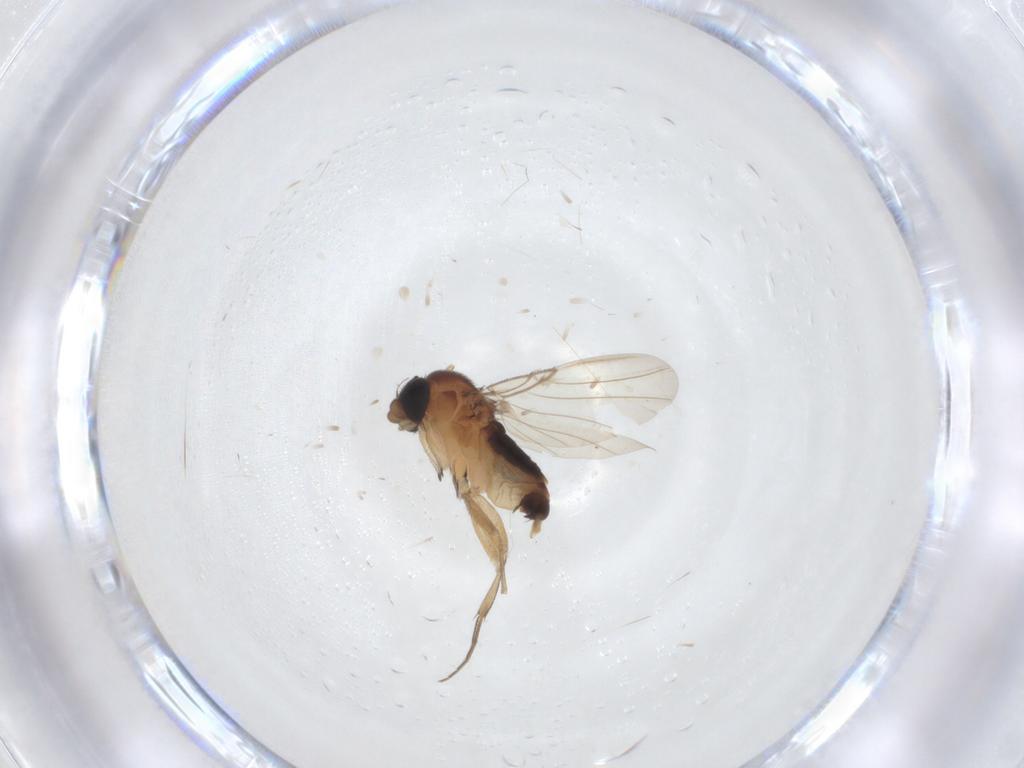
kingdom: Animalia
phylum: Arthropoda
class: Insecta
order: Diptera
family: Phoridae
